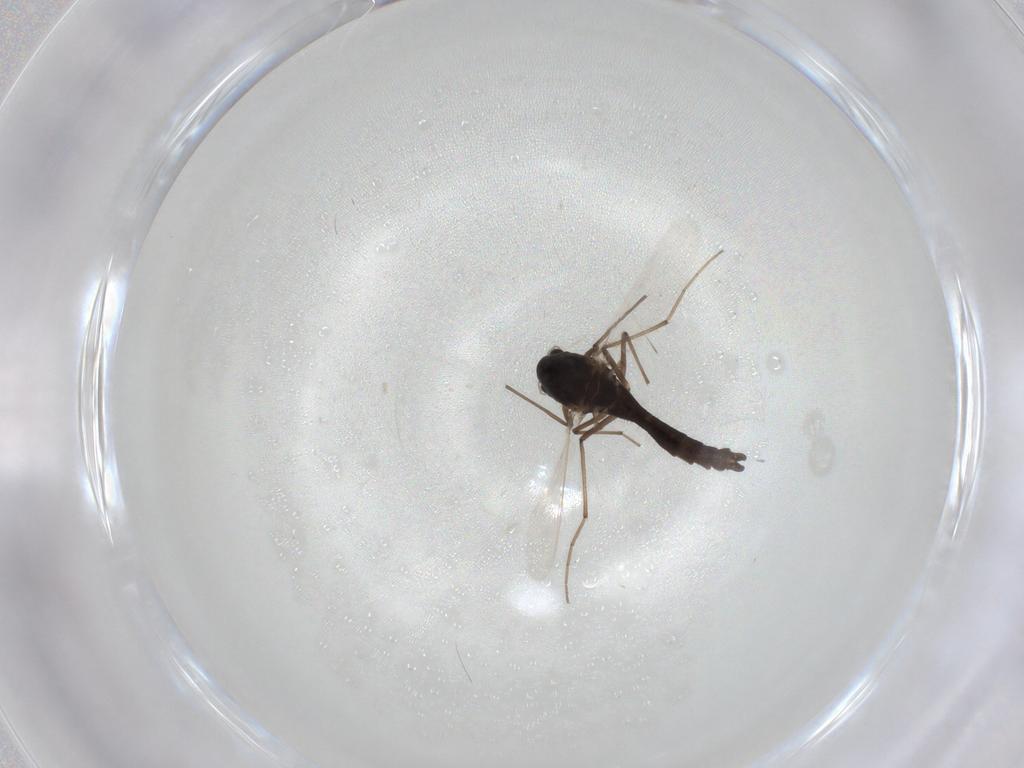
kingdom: Animalia
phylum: Arthropoda
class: Insecta
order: Diptera
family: Chironomidae
